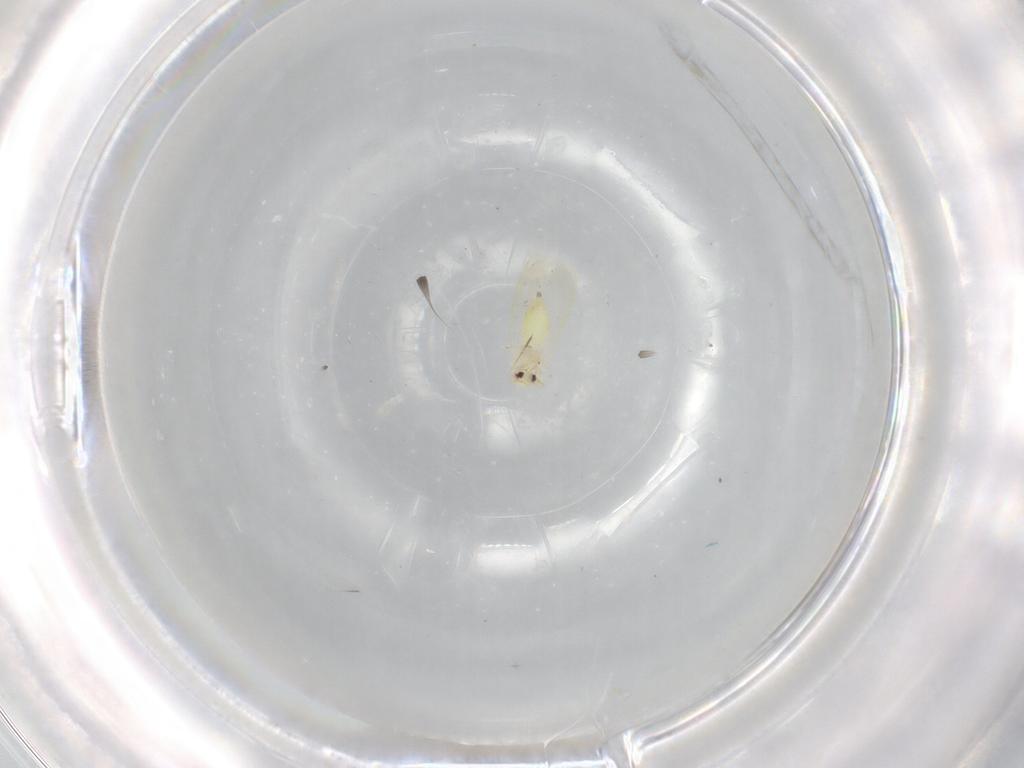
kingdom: Animalia
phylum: Arthropoda
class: Insecta
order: Hemiptera
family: Aleyrodidae
